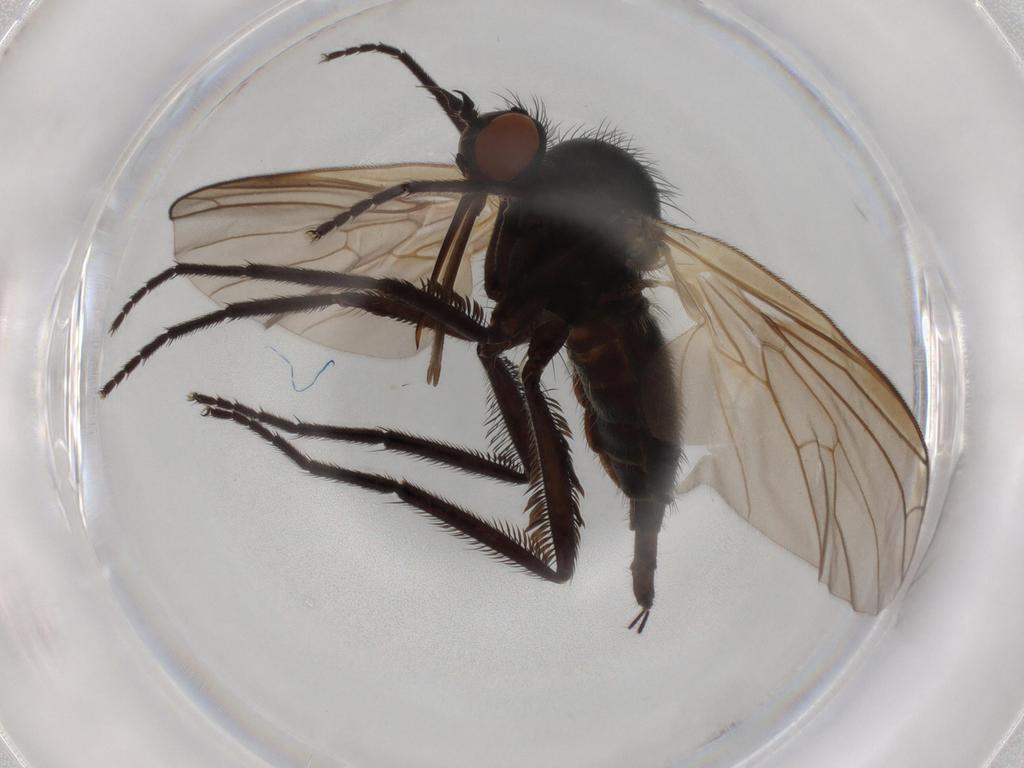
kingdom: Animalia
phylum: Arthropoda
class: Insecta
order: Diptera
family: Empididae
